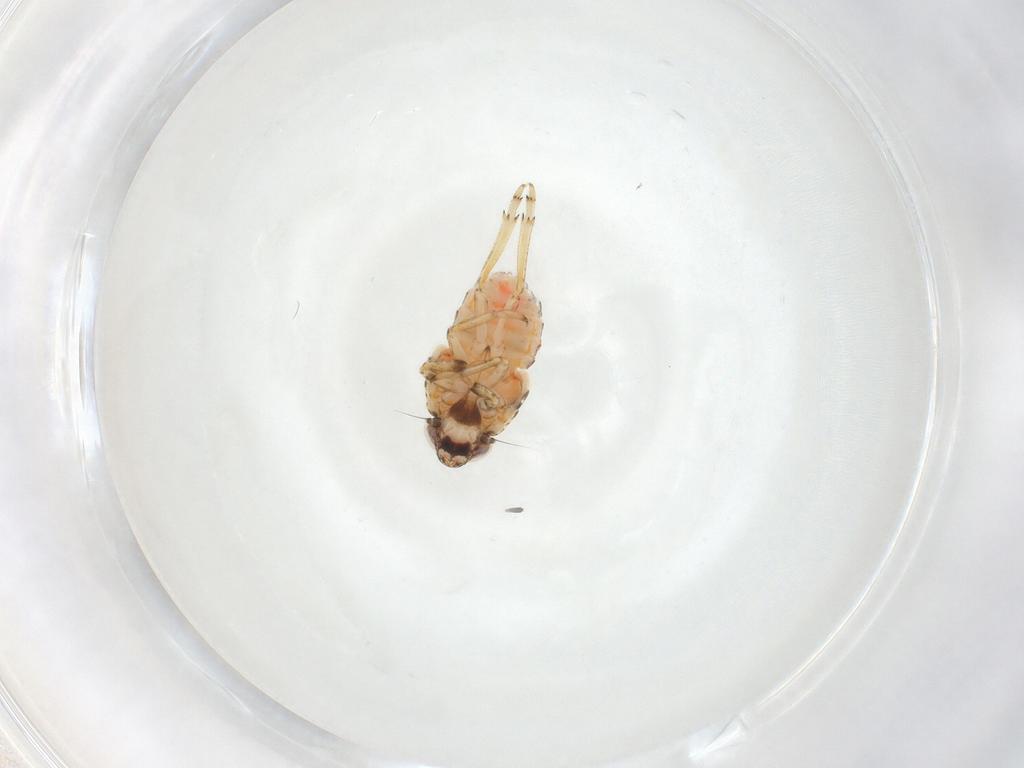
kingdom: Animalia
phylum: Arthropoda
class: Insecta
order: Hemiptera
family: Issidae
